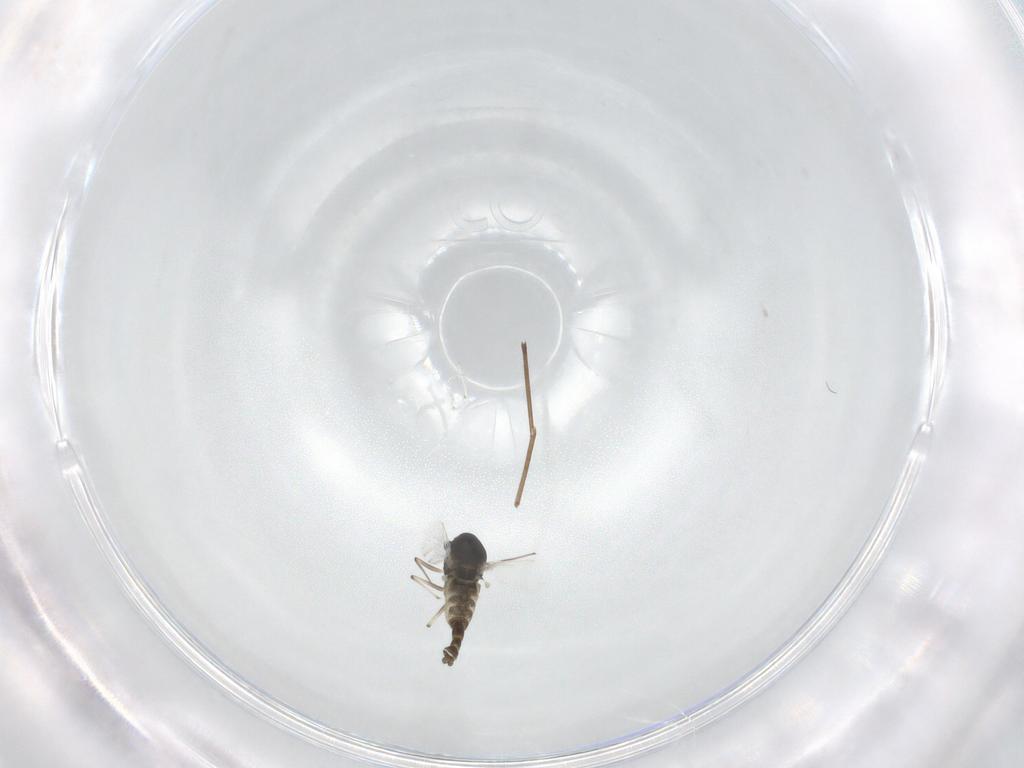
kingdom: Animalia
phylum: Arthropoda
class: Insecta
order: Diptera
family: Chironomidae
